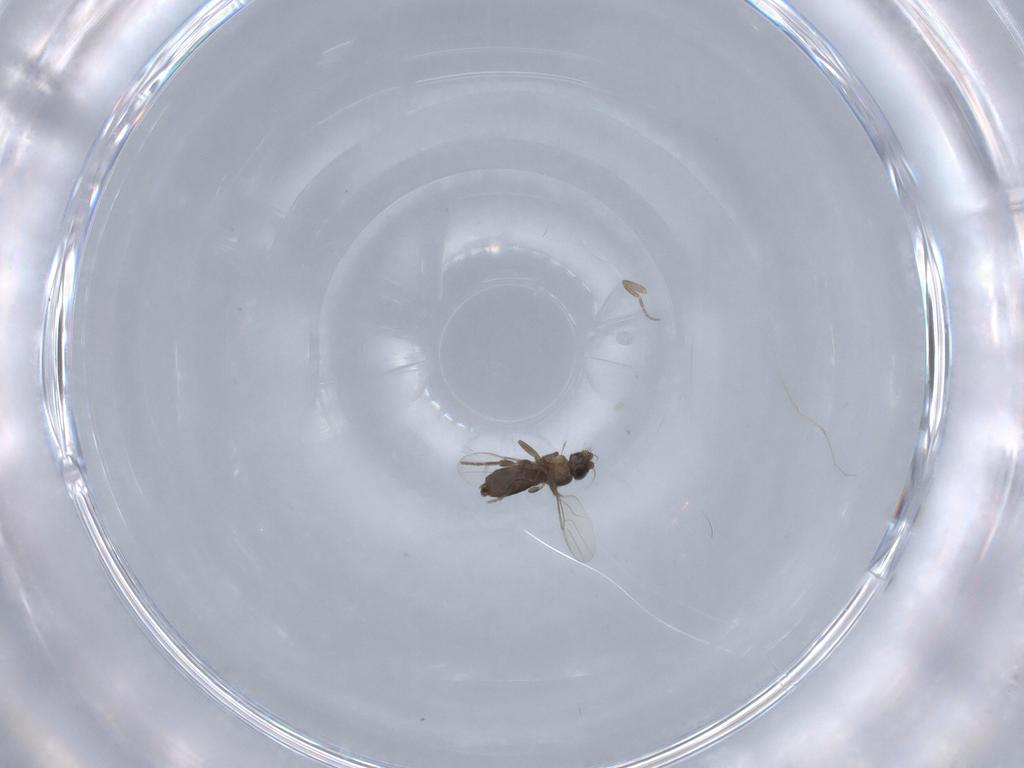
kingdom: Animalia
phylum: Arthropoda
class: Insecta
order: Diptera
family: Phoridae
